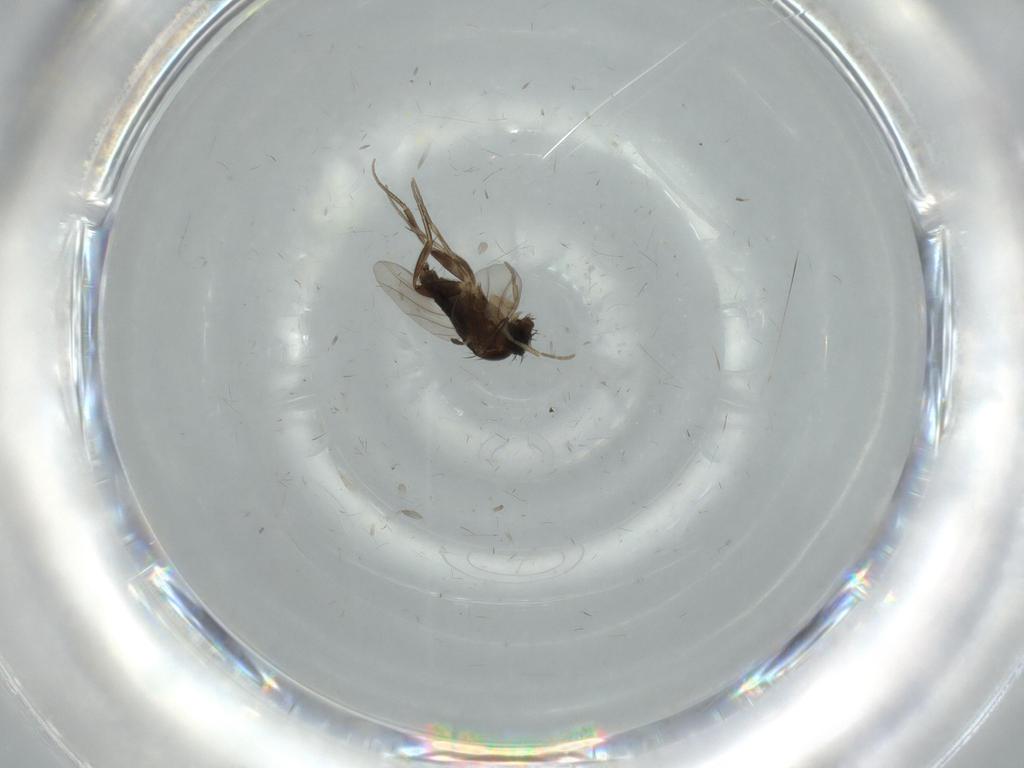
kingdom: Animalia
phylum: Arthropoda
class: Insecta
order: Diptera
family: Phoridae
